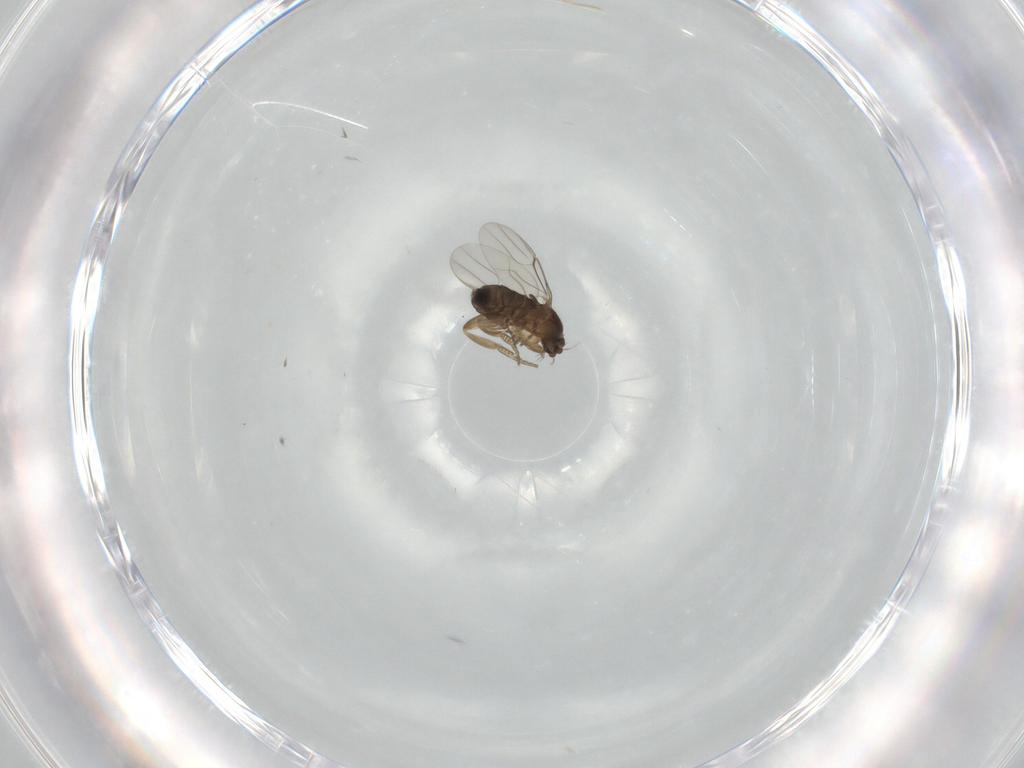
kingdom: Animalia
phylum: Arthropoda
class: Insecta
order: Diptera
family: Phoridae
